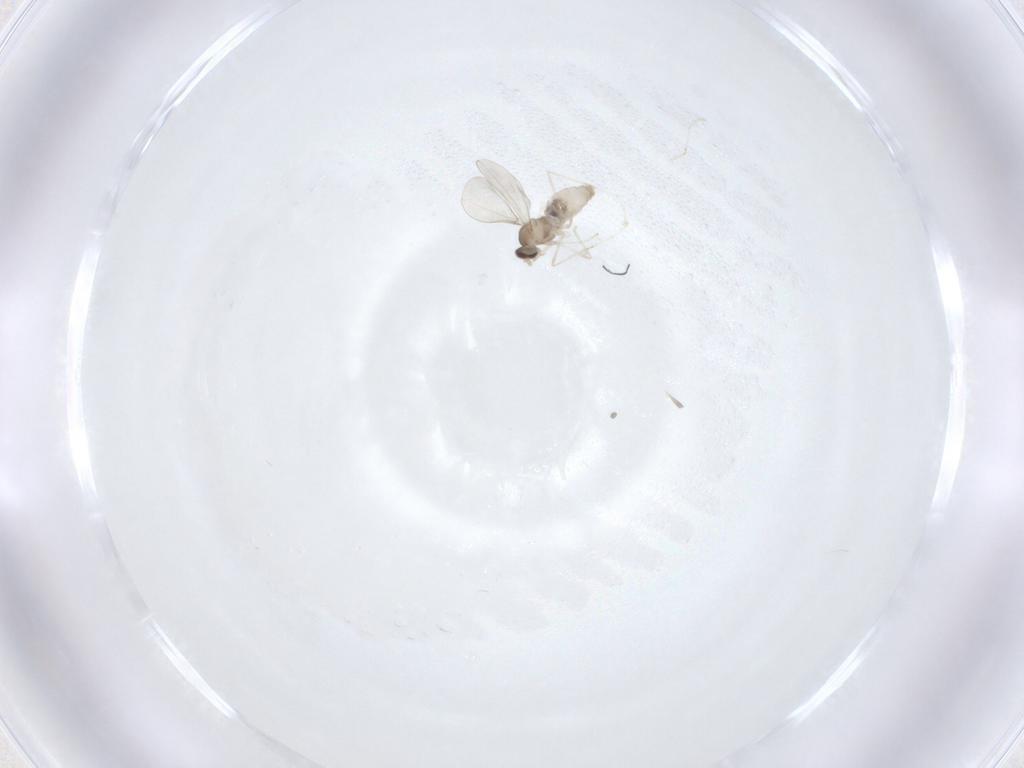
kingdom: Animalia
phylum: Arthropoda
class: Insecta
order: Diptera
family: Cecidomyiidae
